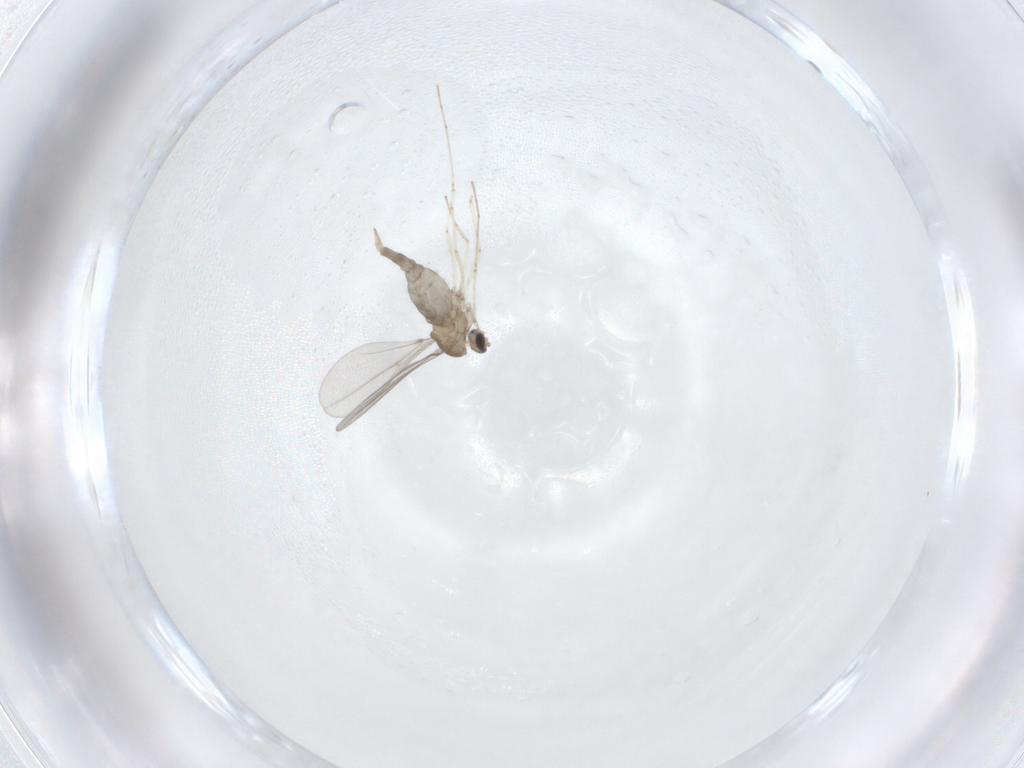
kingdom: Animalia
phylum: Arthropoda
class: Insecta
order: Diptera
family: Cecidomyiidae
